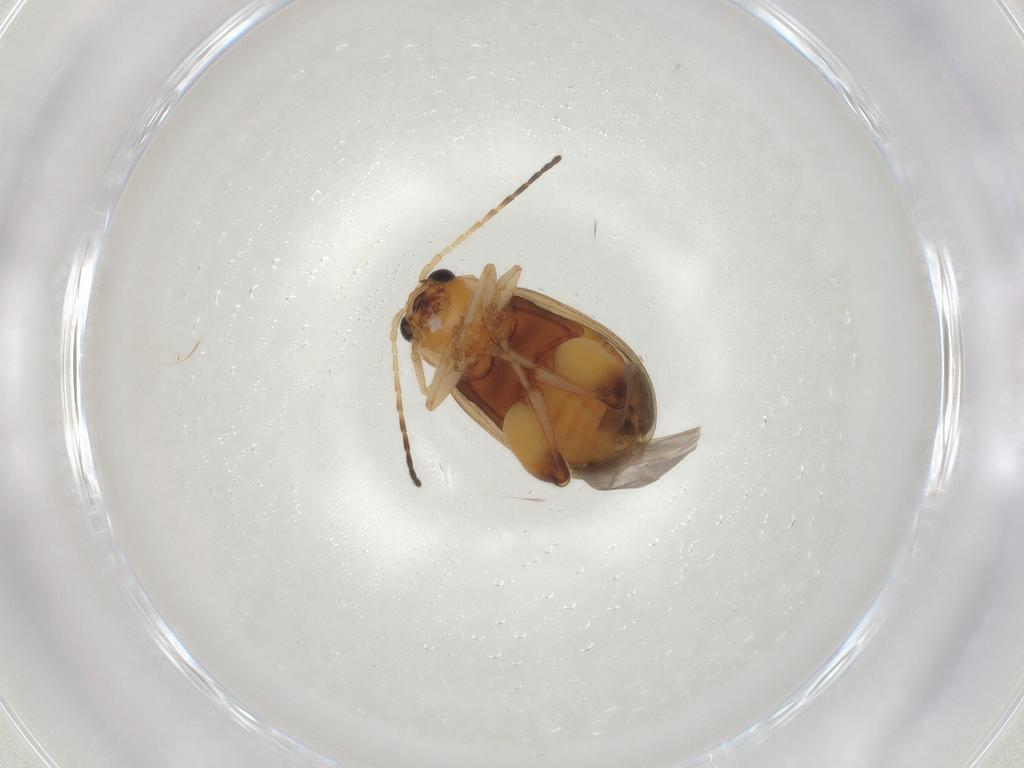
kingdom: Animalia
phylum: Arthropoda
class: Insecta
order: Coleoptera
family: Chrysomelidae
